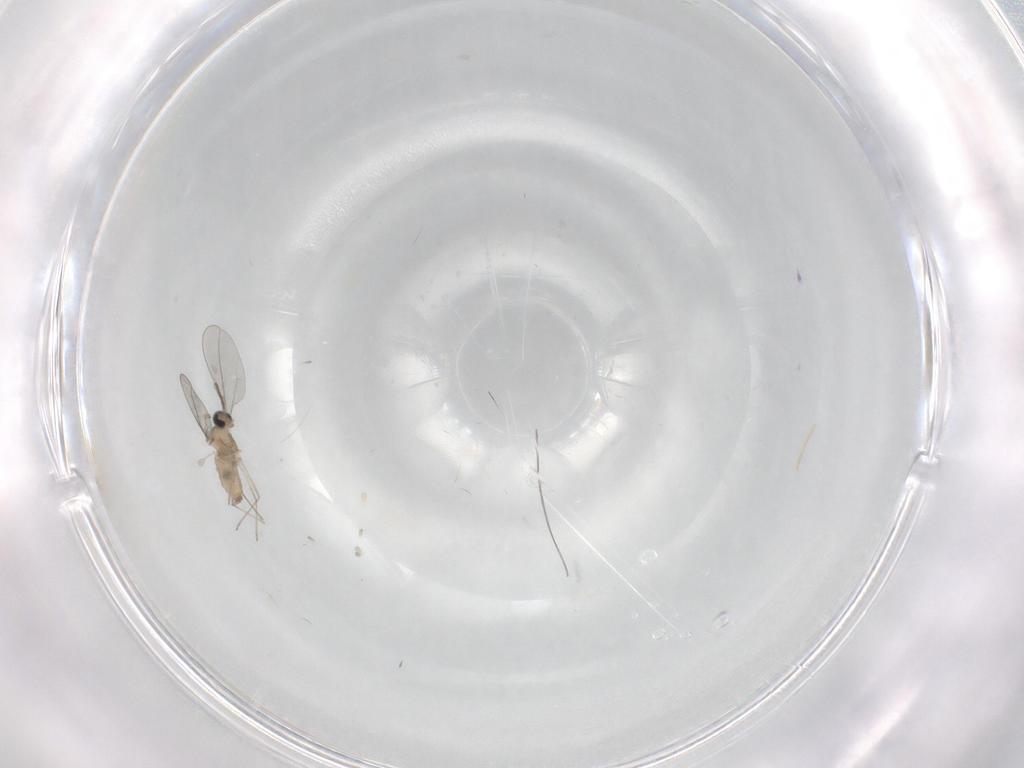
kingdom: Animalia
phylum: Arthropoda
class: Insecta
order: Diptera
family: Cecidomyiidae
